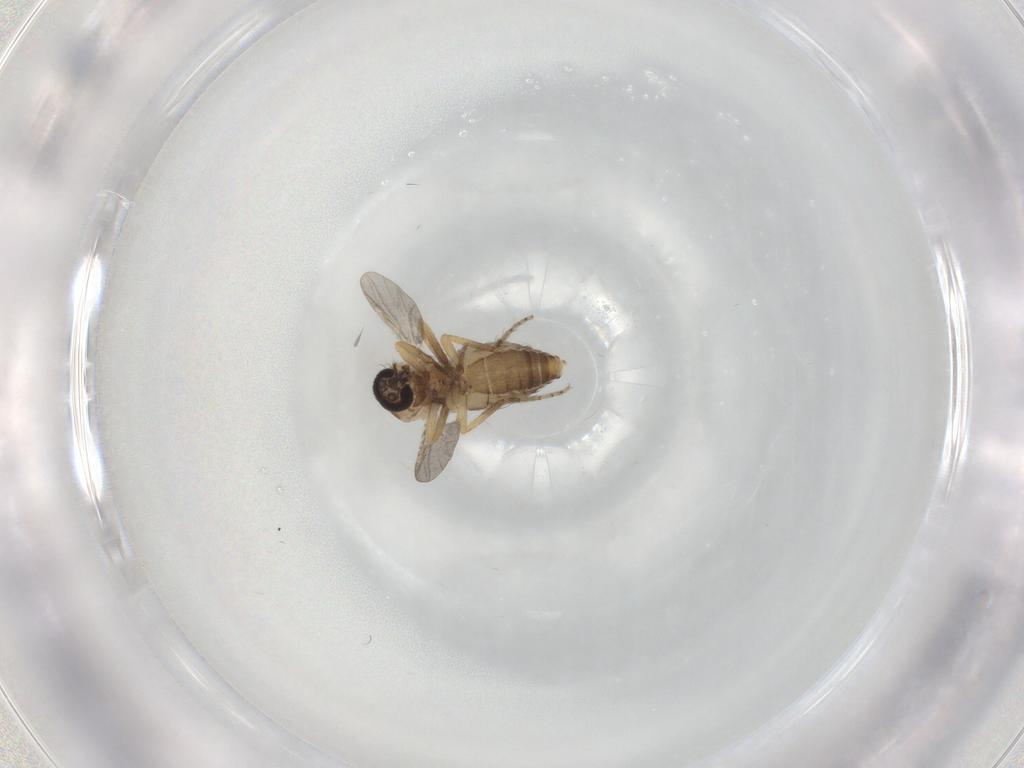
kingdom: Animalia
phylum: Arthropoda
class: Insecta
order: Diptera
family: Ceratopogonidae
